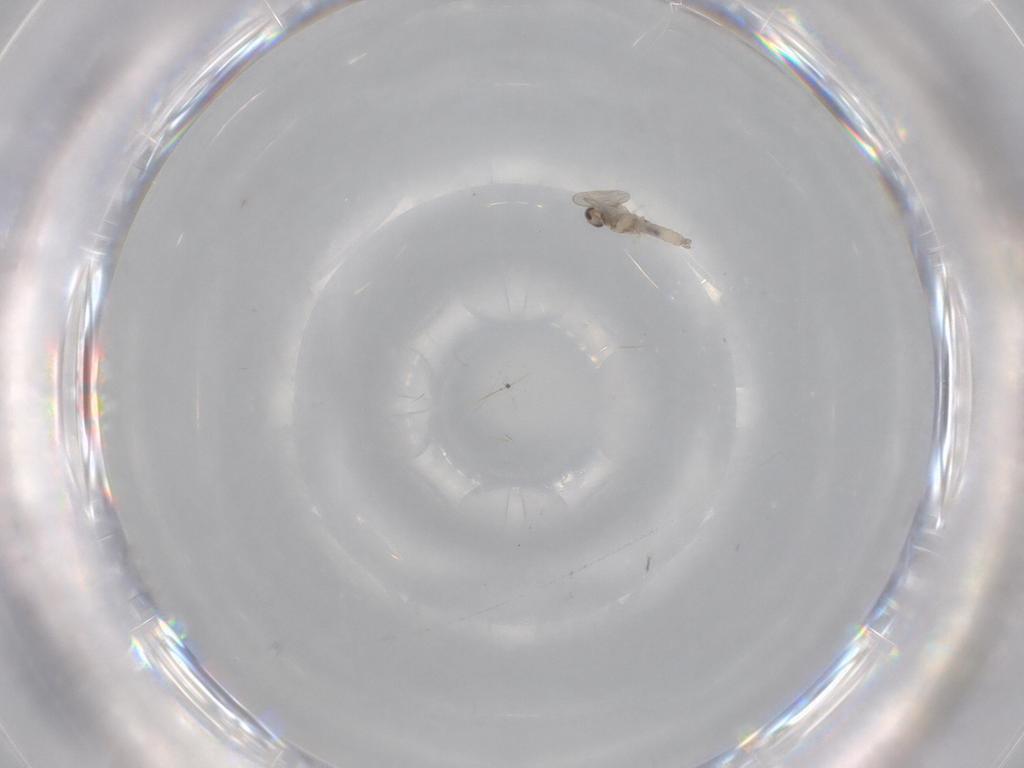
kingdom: Animalia
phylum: Arthropoda
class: Insecta
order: Diptera
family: Cecidomyiidae
